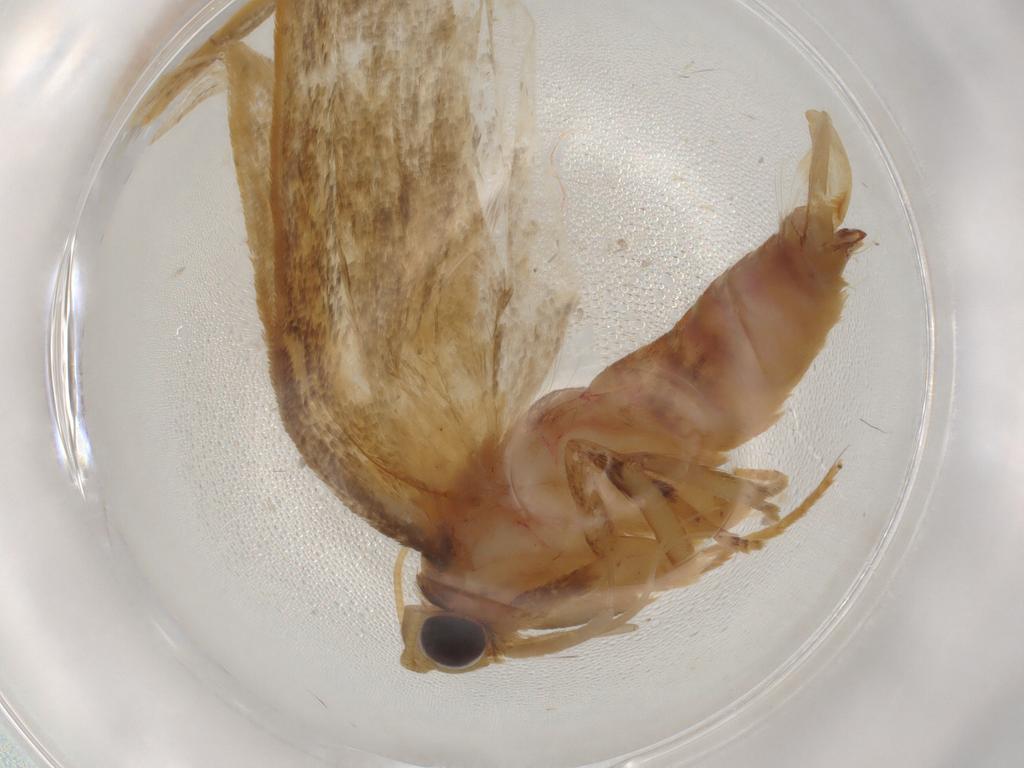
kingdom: Animalia
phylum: Arthropoda
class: Insecta
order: Lepidoptera
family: Oecophoridae
